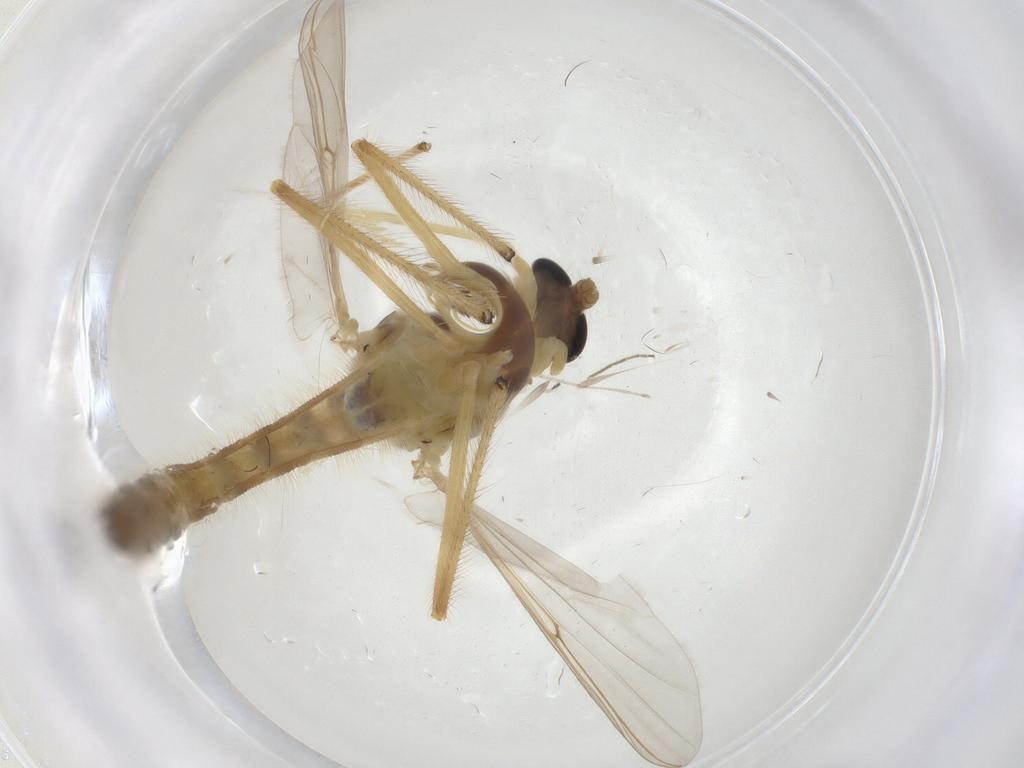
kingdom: Animalia
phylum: Arthropoda
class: Insecta
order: Diptera
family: Chironomidae
